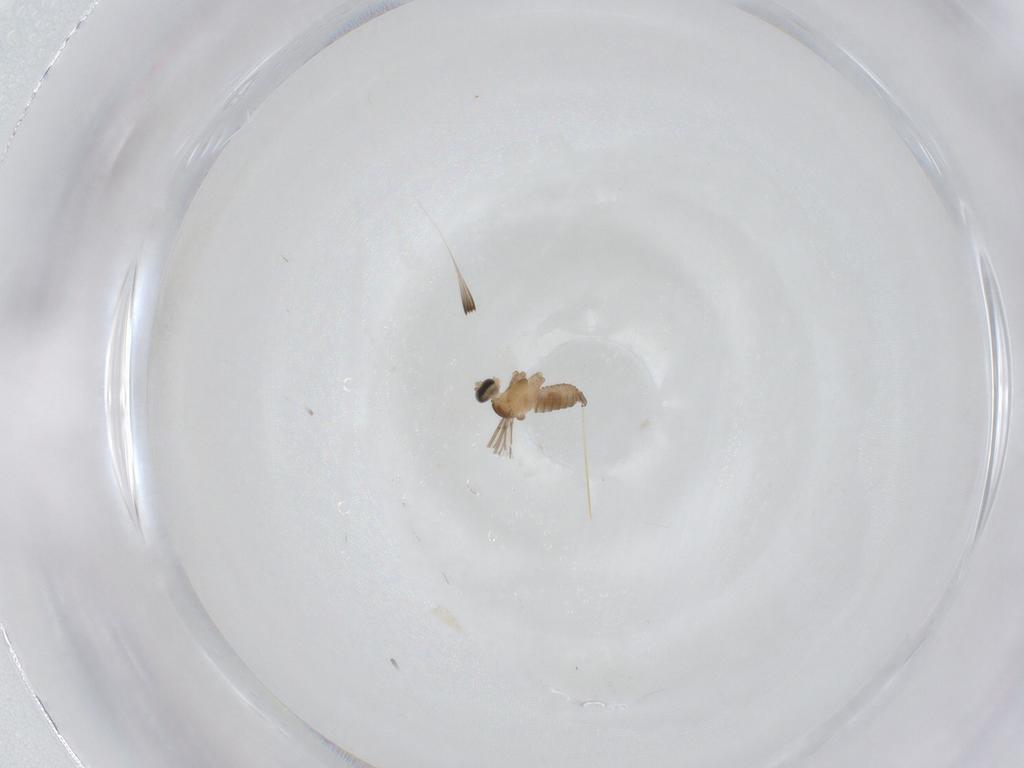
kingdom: Animalia
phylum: Arthropoda
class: Insecta
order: Diptera
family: Cecidomyiidae
